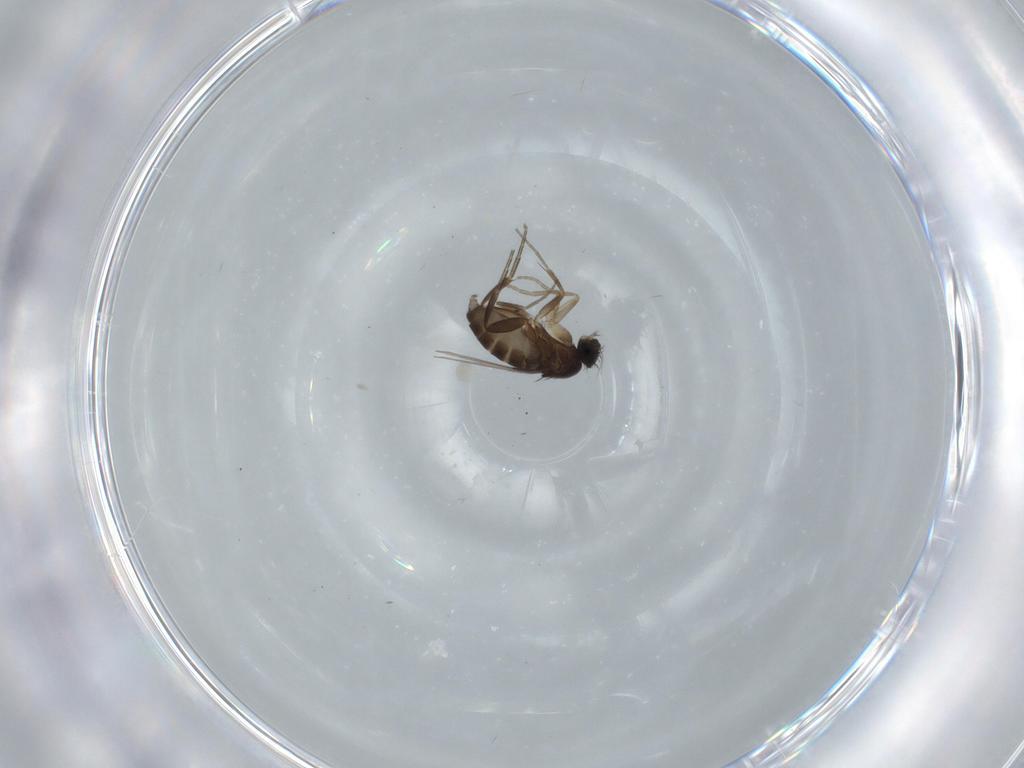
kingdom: Animalia
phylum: Arthropoda
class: Insecta
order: Diptera
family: Phoridae
